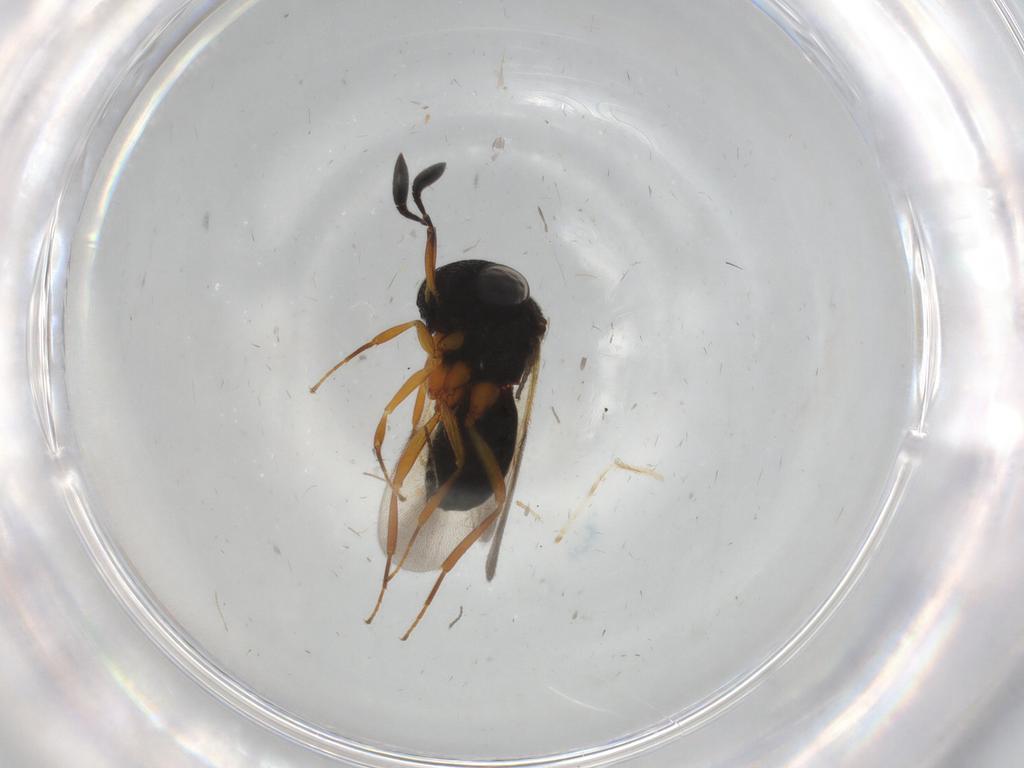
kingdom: Animalia
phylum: Arthropoda
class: Insecta
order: Hymenoptera
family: Scelionidae
